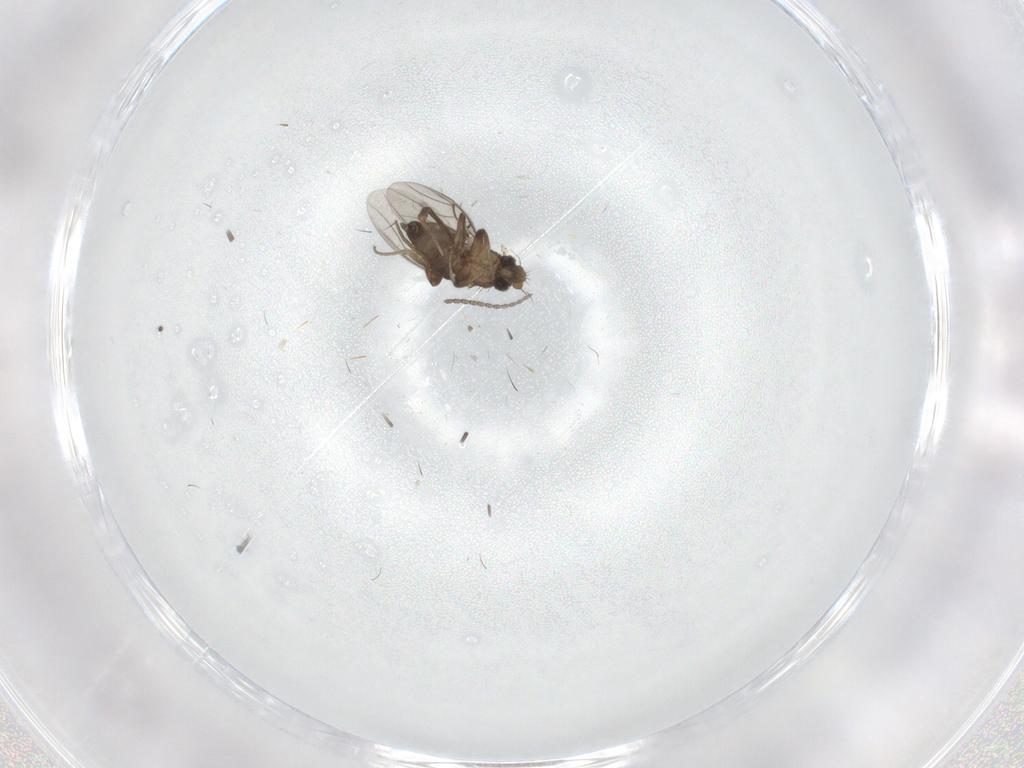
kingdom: Animalia
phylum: Arthropoda
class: Insecta
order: Diptera
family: Phoridae
